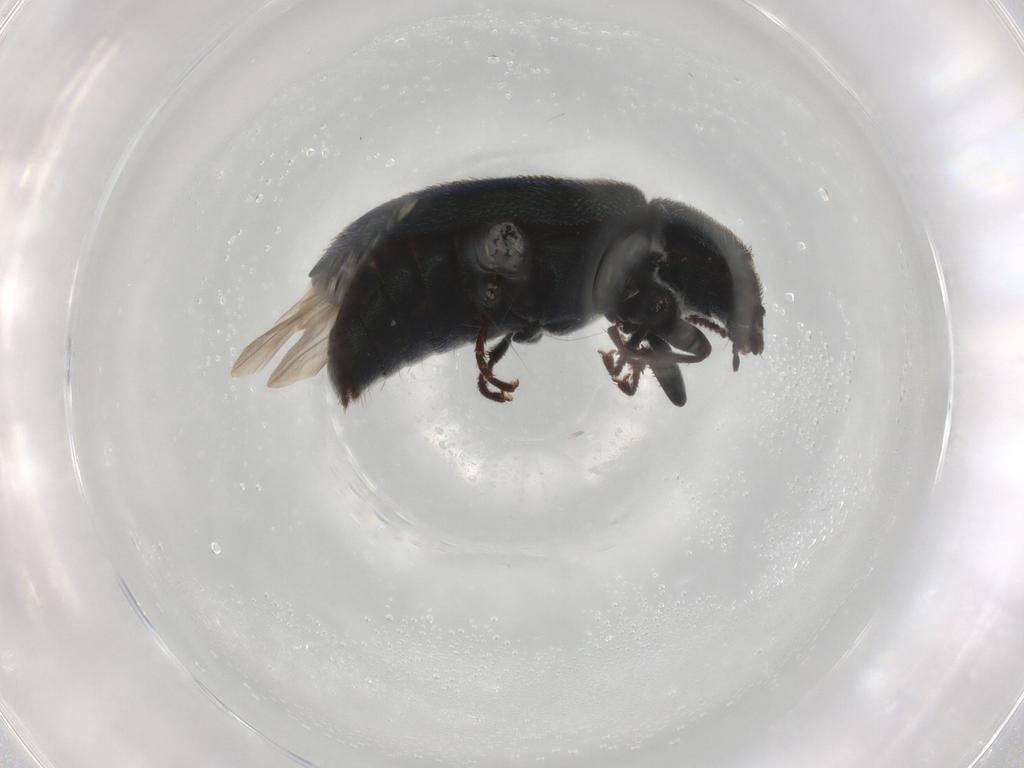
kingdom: Animalia
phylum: Arthropoda
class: Insecta
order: Coleoptera
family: Melyridae
